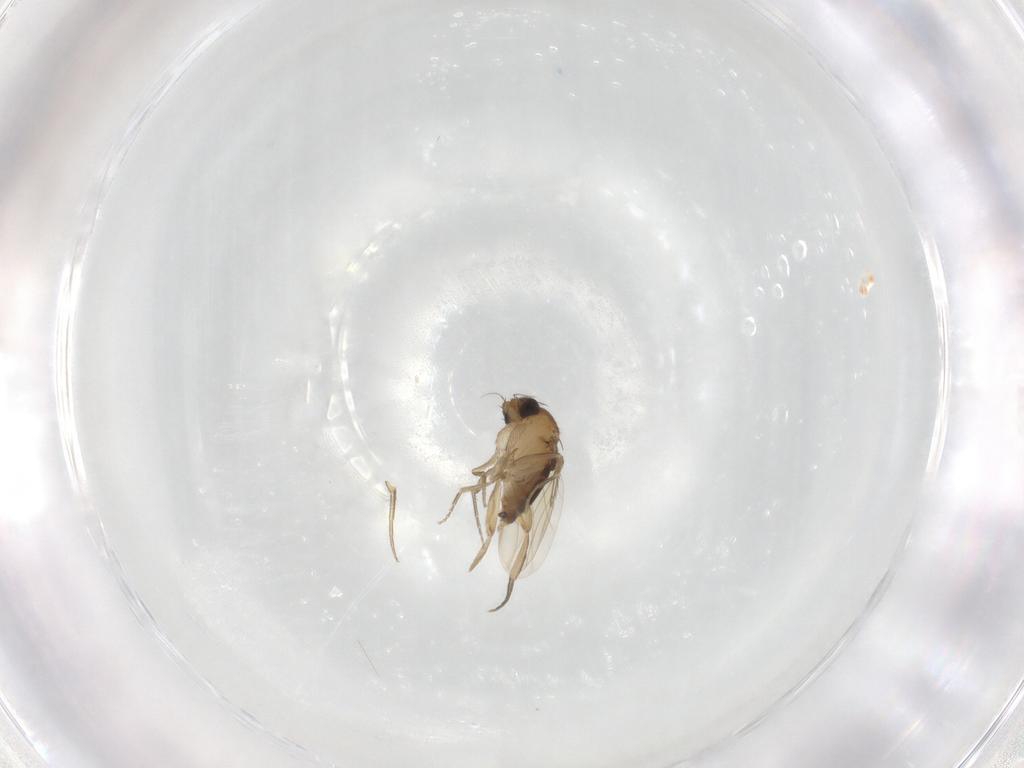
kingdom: Animalia
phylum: Arthropoda
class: Insecta
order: Diptera
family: Phoridae
